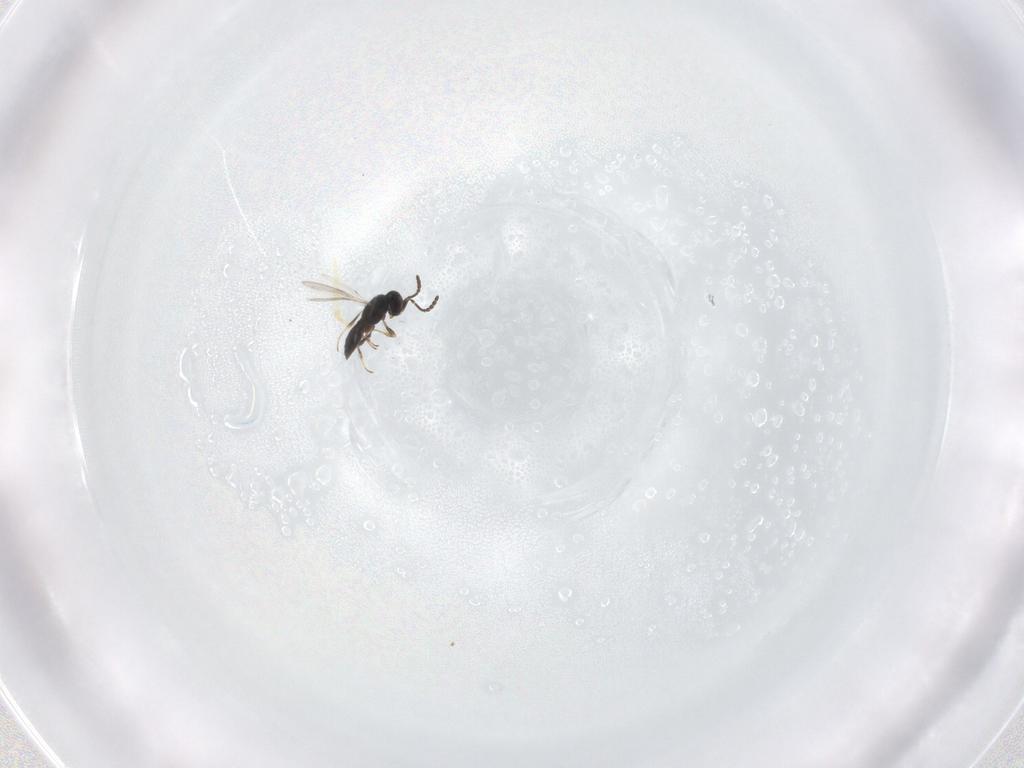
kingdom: Animalia
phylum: Arthropoda
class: Insecta
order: Hymenoptera
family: Scelionidae
